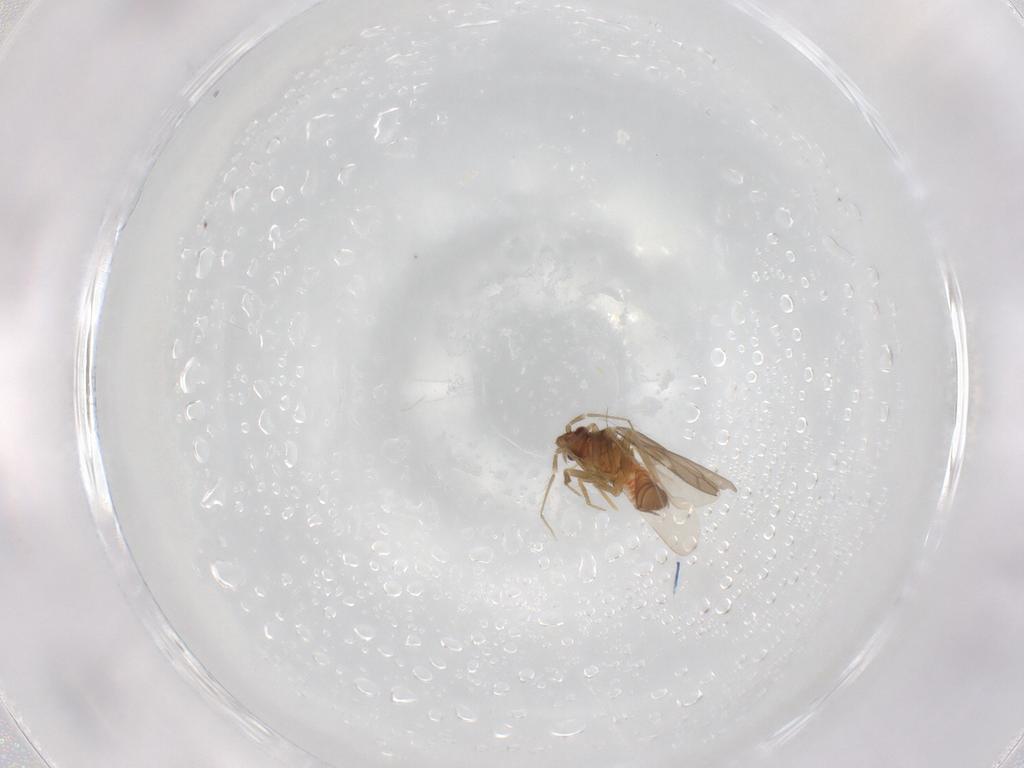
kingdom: Animalia
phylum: Arthropoda
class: Insecta
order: Hemiptera
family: Ceratocombidae
